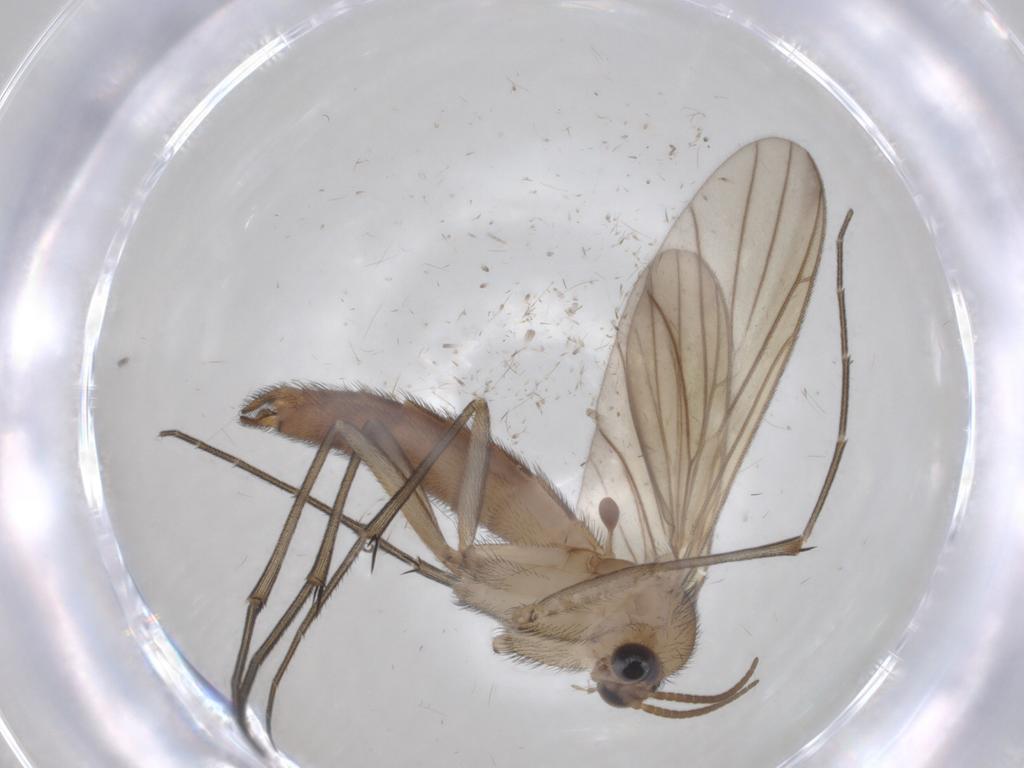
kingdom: Animalia
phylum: Arthropoda
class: Insecta
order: Diptera
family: Keroplatidae
